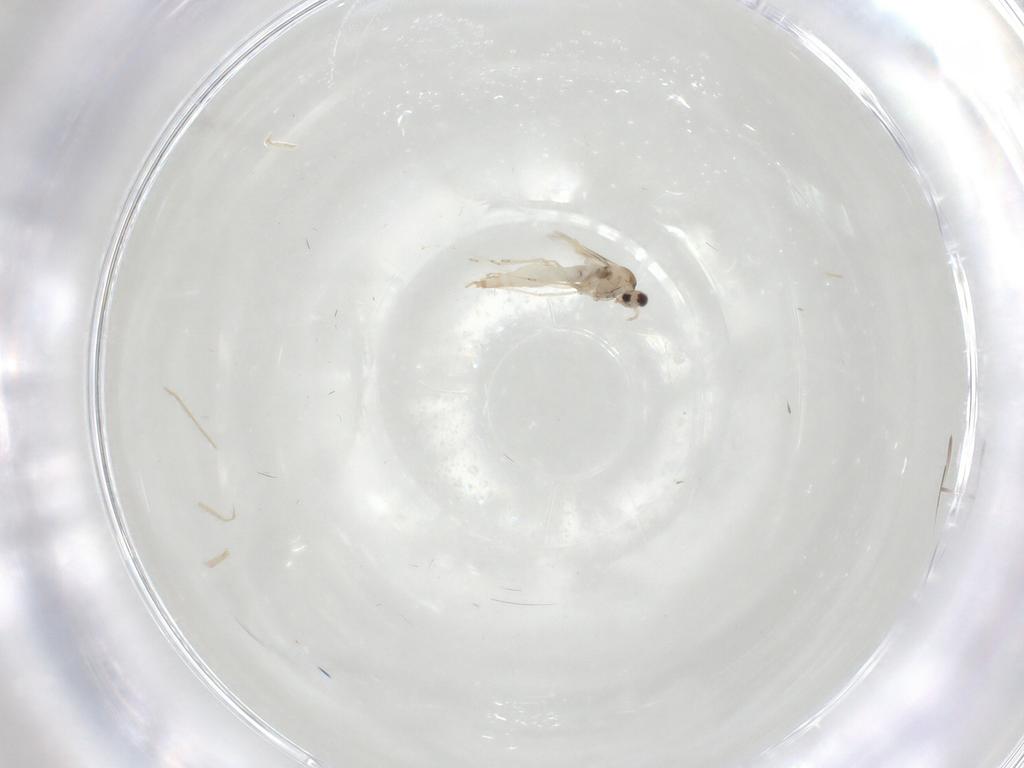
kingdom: Animalia
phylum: Arthropoda
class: Insecta
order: Diptera
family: Cecidomyiidae
